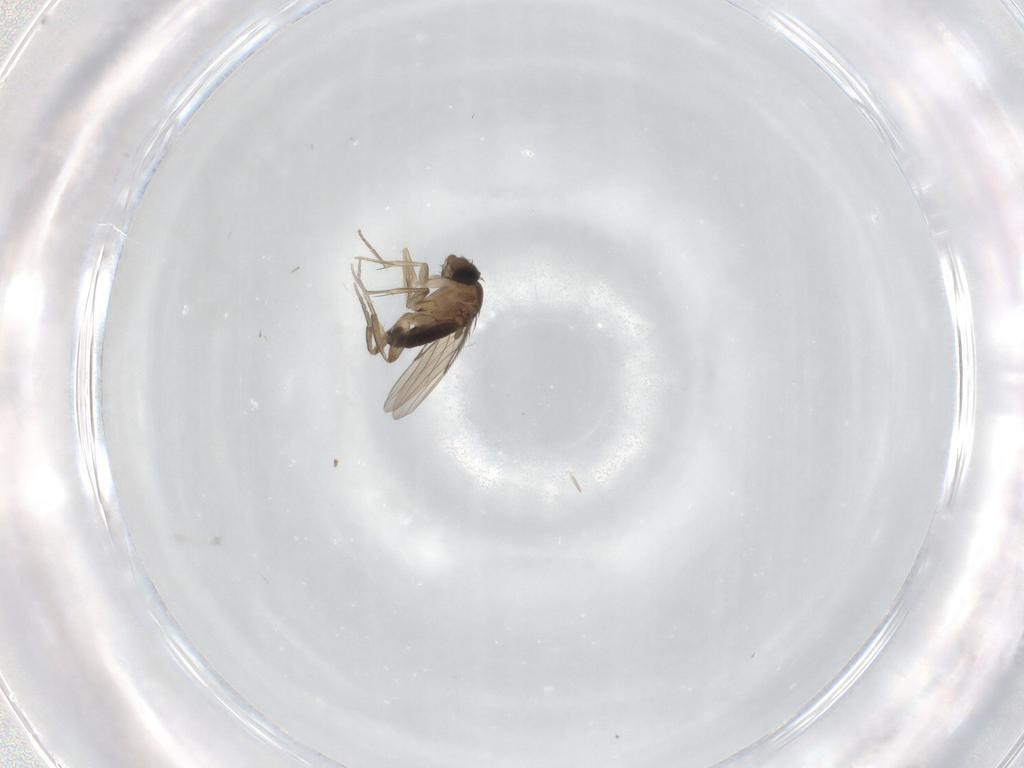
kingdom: Animalia
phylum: Arthropoda
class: Insecta
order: Diptera
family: Phoridae
